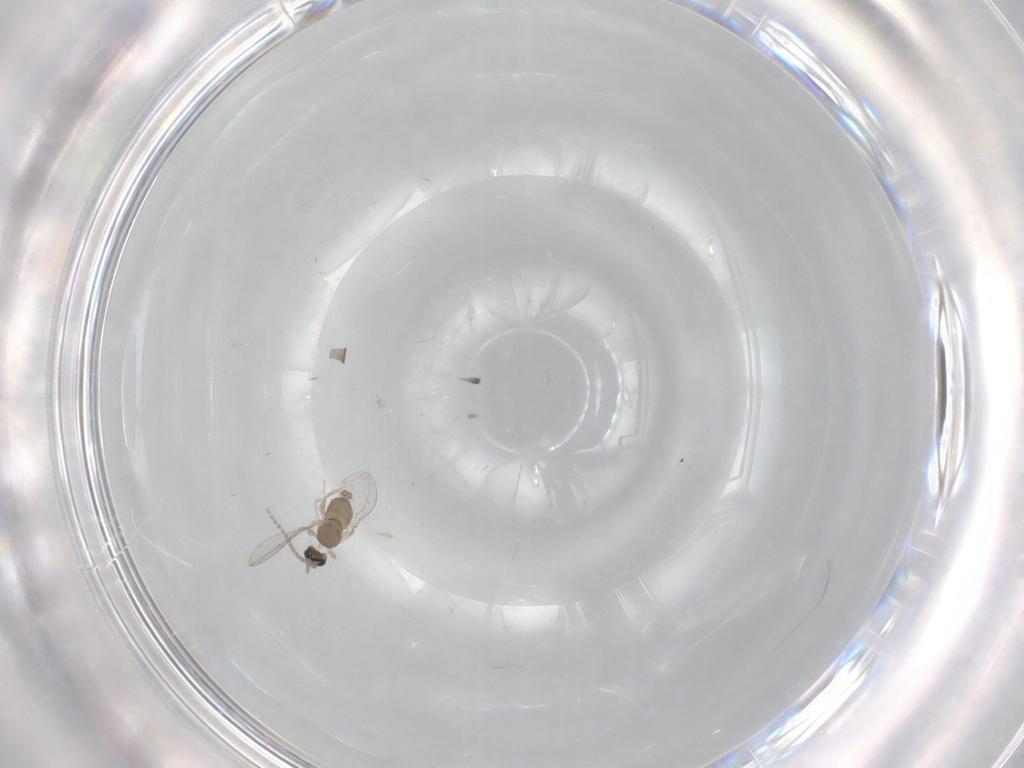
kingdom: Animalia
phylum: Arthropoda
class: Insecta
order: Diptera
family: Cecidomyiidae
